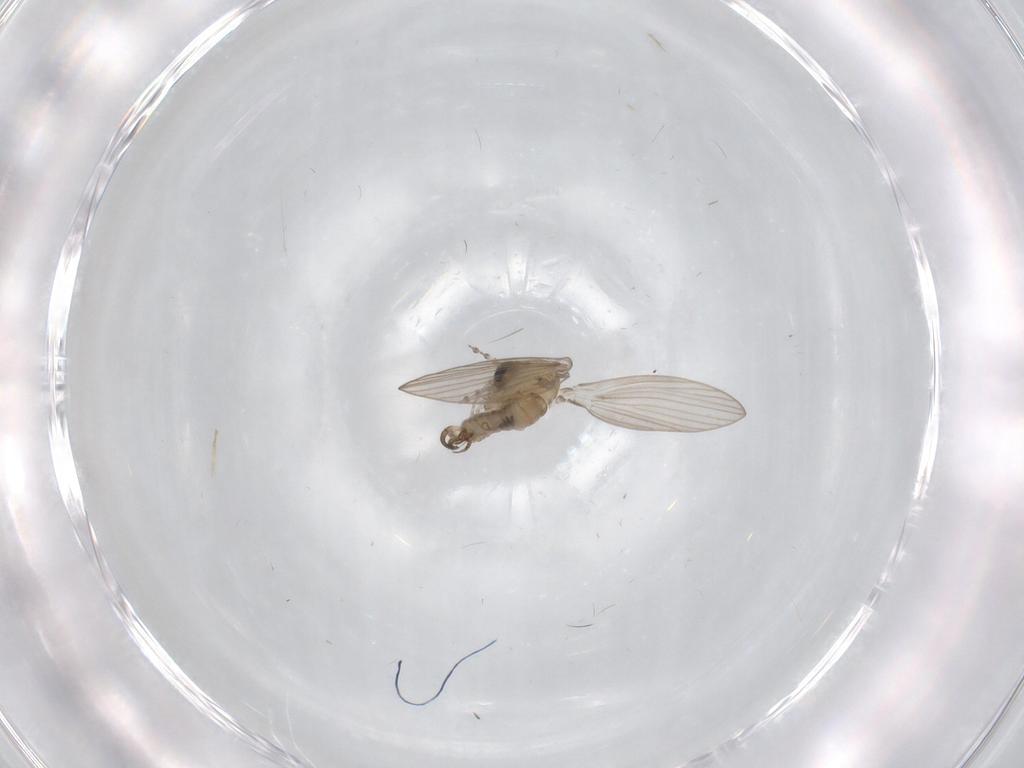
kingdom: Animalia
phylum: Arthropoda
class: Insecta
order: Diptera
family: Psychodidae
